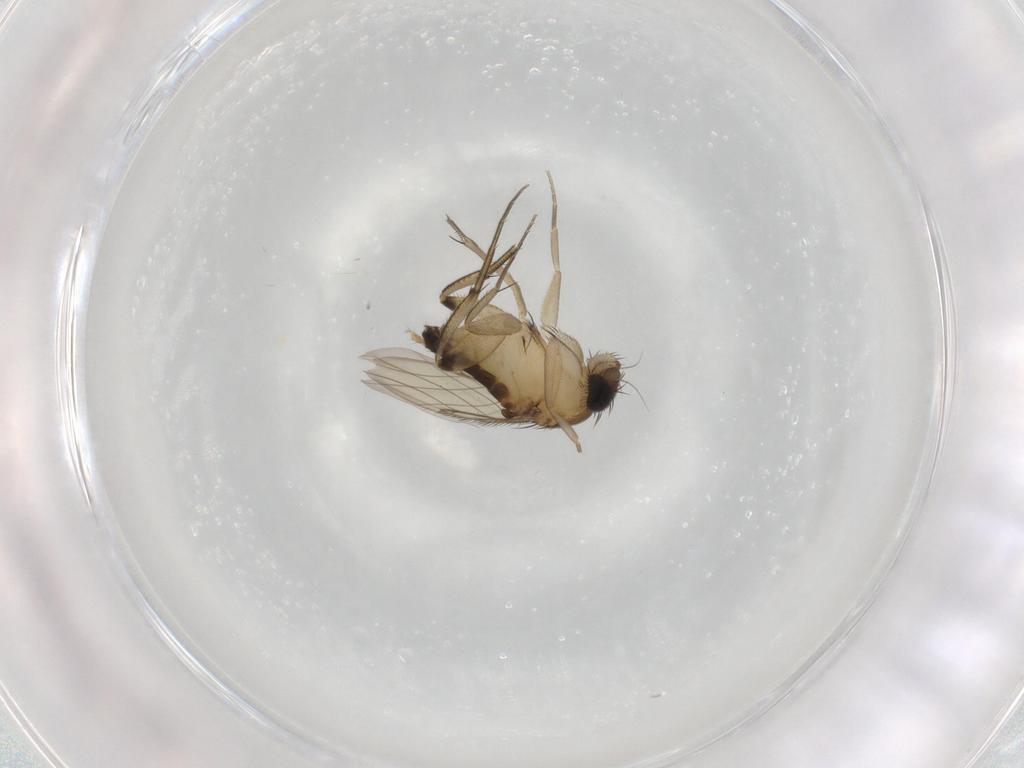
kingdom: Animalia
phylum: Arthropoda
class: Insecta
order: Diptera
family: Phoridae
